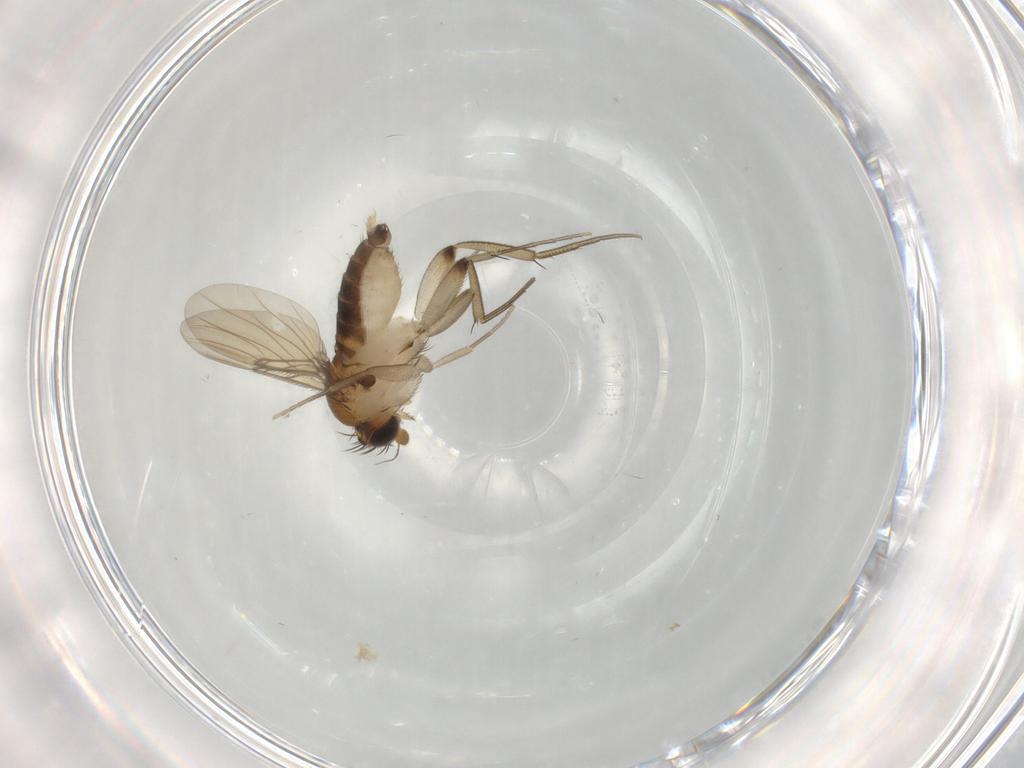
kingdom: Animalia
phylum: Arthropoda
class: Insecta
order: Diptera
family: Phoridae
